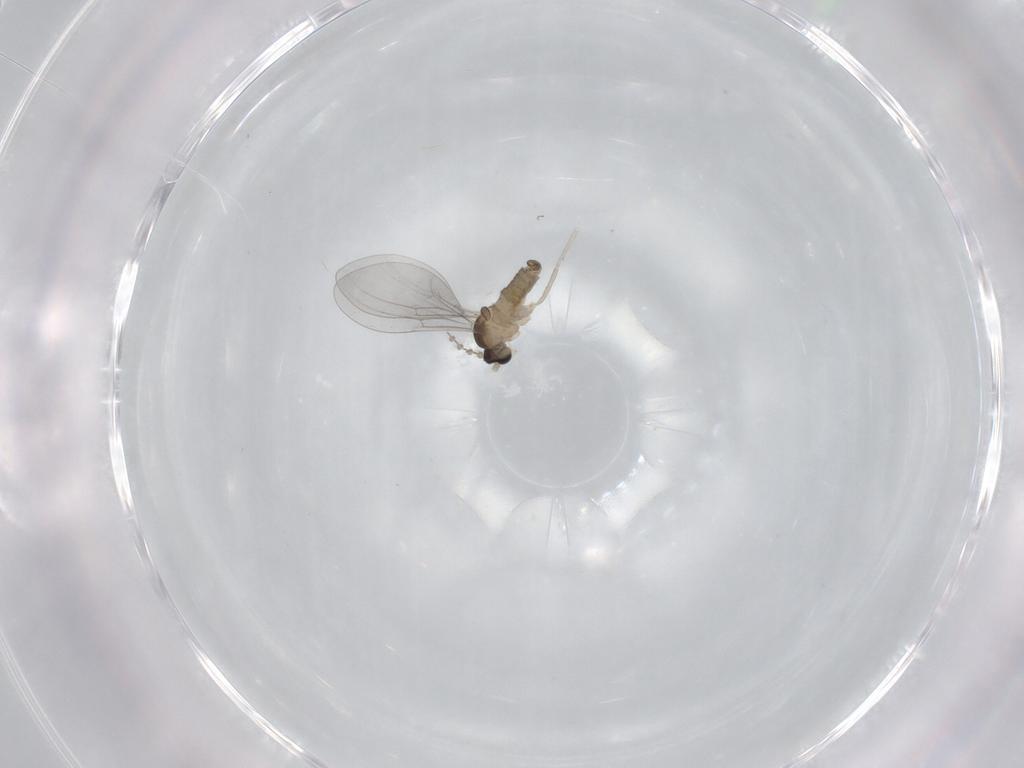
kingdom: Animalia
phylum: Arthropoda
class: Insecta
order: Diptera
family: Cecidomyiidae
